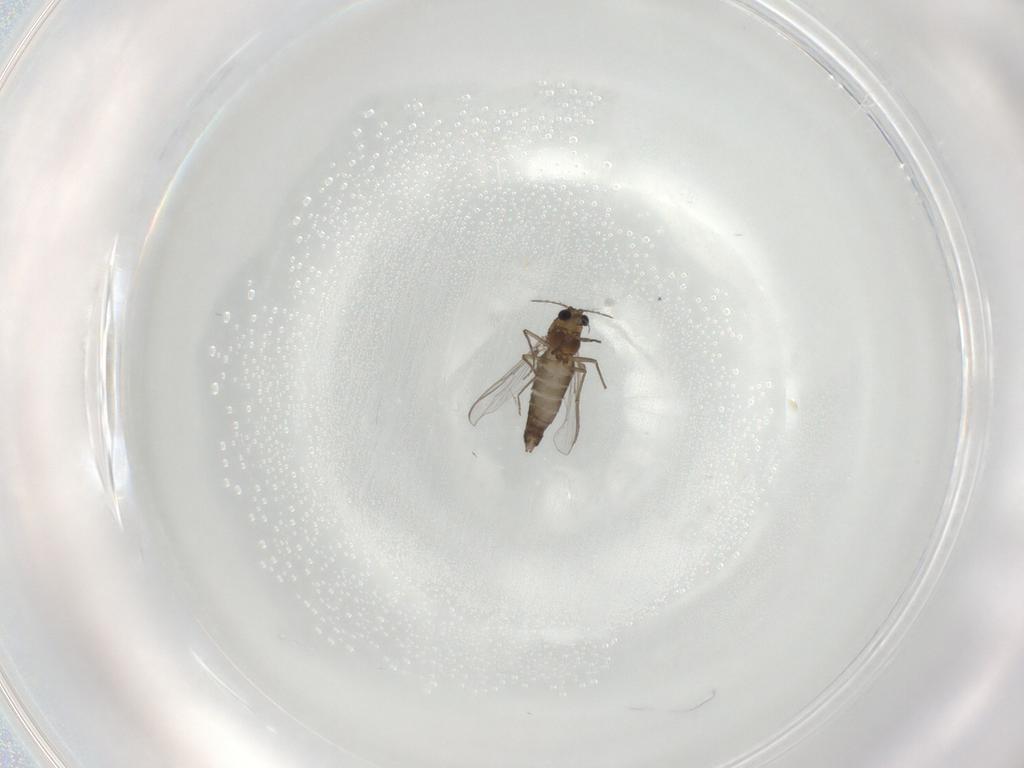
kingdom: Animalia
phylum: Arthropoda
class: Insecta
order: Diptera
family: Chironomidae
